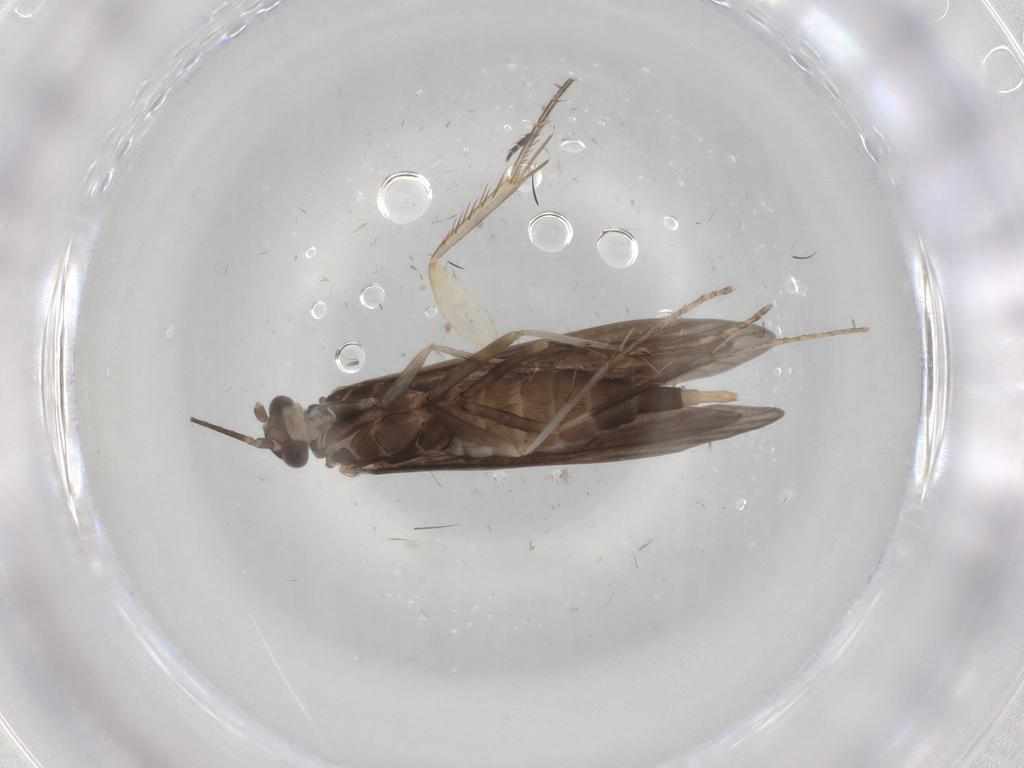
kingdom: Animalia
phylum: Arthropoda
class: Insecta
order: Trichoptera
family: Xiphocentronidae
